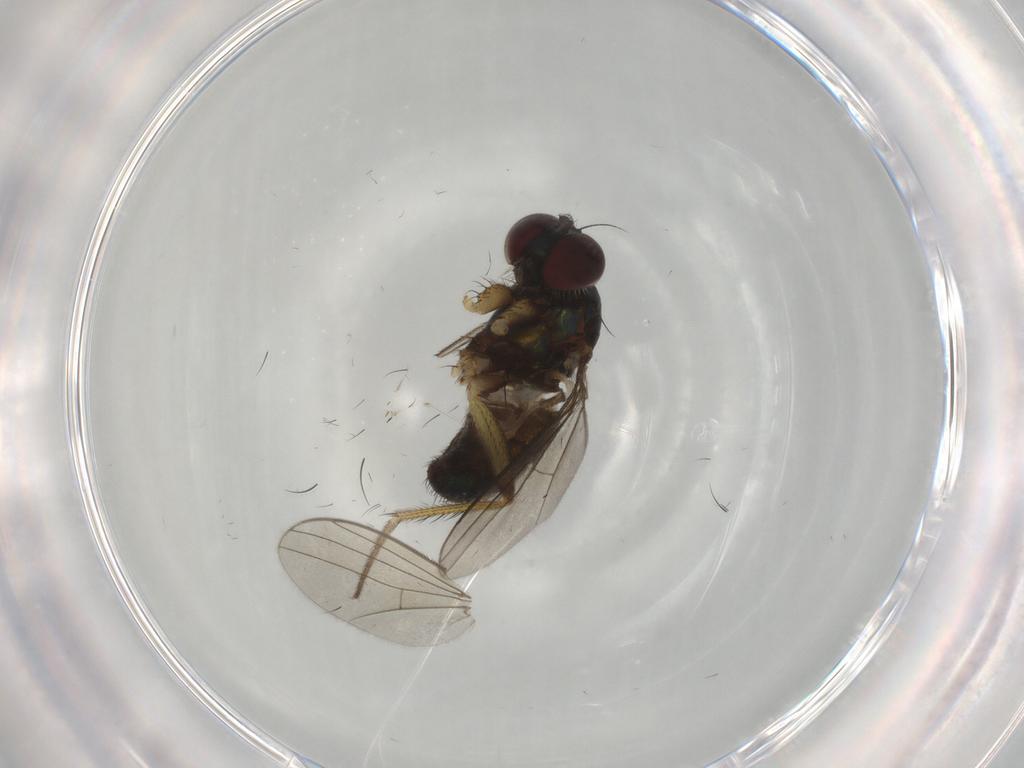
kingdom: Animalia
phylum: Arthropoda
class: Insecta
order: Diptera
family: Dolichopodidae
